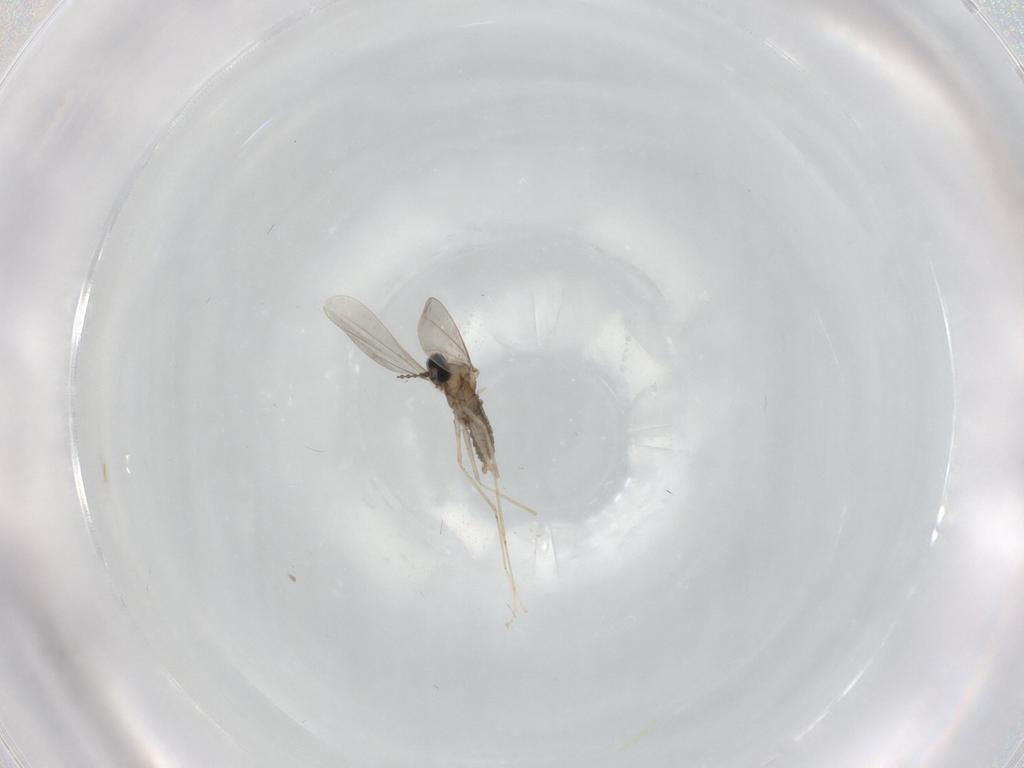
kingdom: Animalia
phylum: Arthropoda
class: Insecta
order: Diptera
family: Cecidomyiidae
